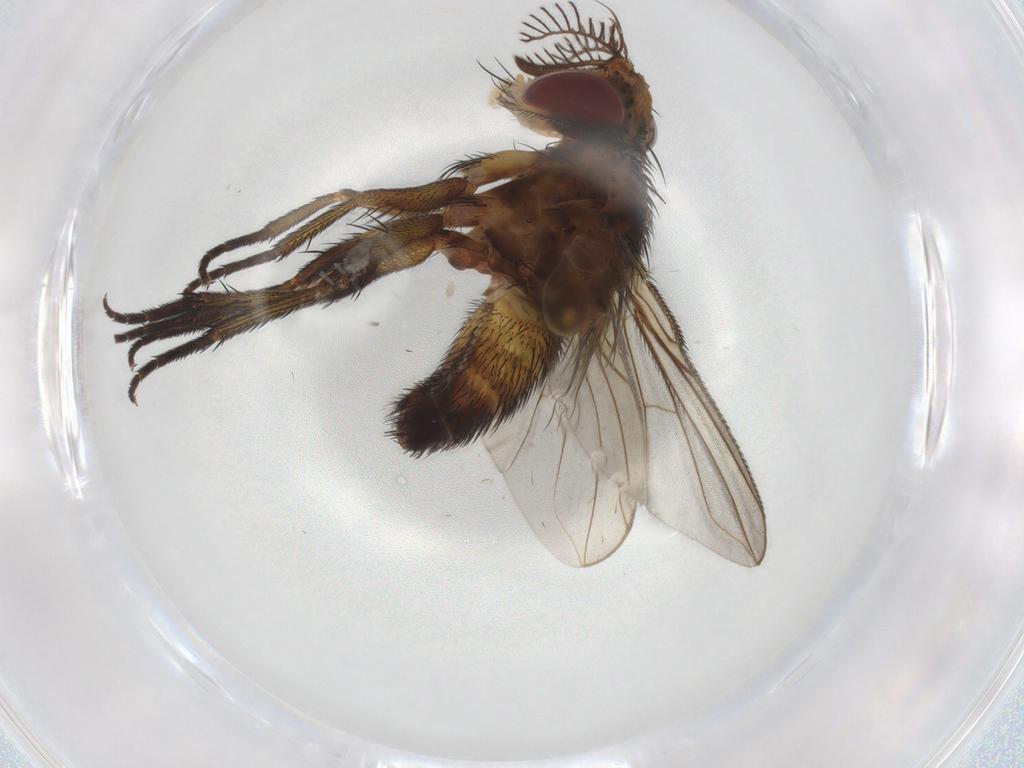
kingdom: Animalia
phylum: Arthropoda
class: Insecta
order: Diptera
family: Tachinidae
